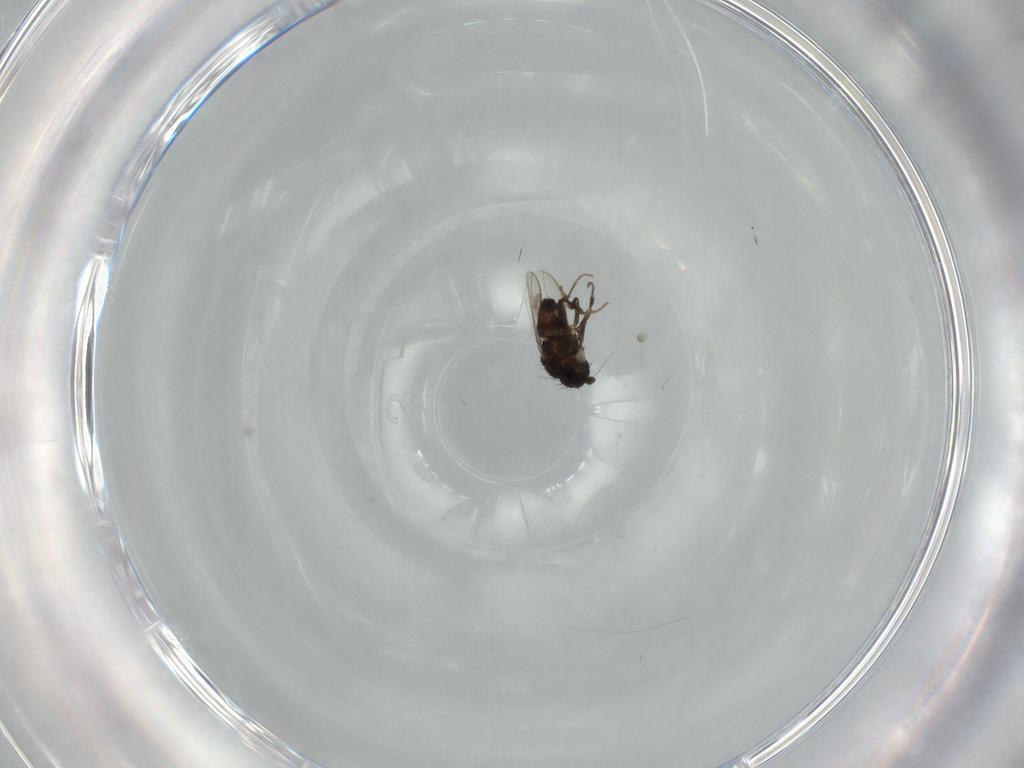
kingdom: Animalia
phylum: Arthropoda
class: Insecta
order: Diptera
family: Sphaeroceridae
